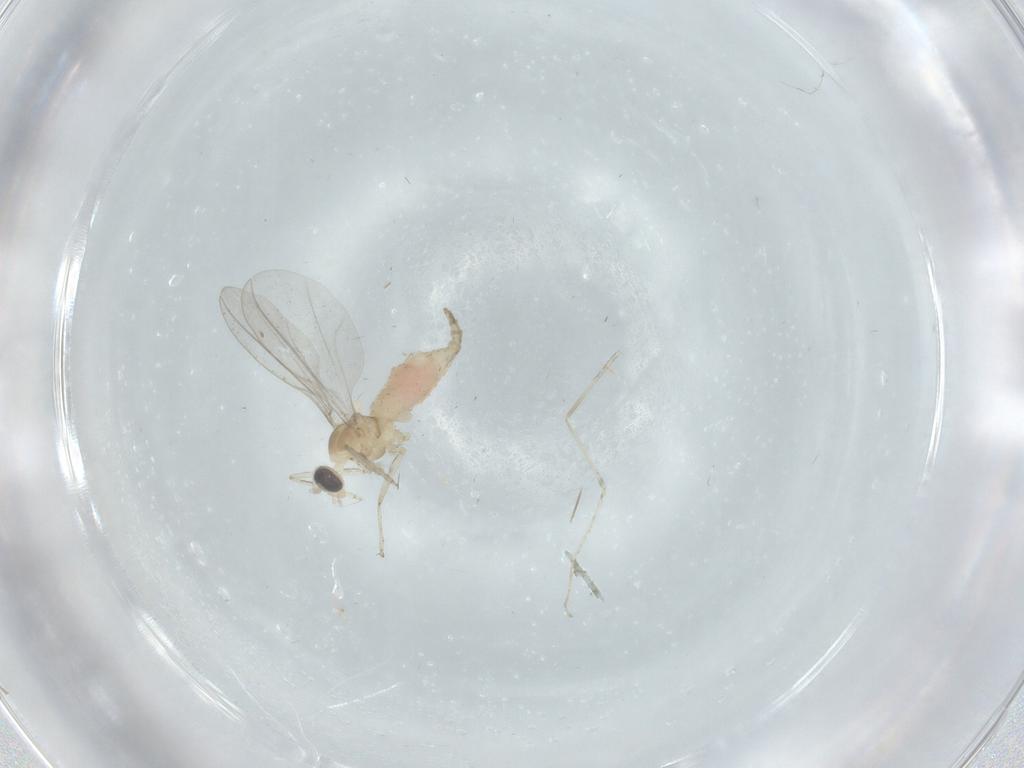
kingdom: Animalia
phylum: Arthropoda
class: Insecta
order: Diptera
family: Cecidomyiidae
